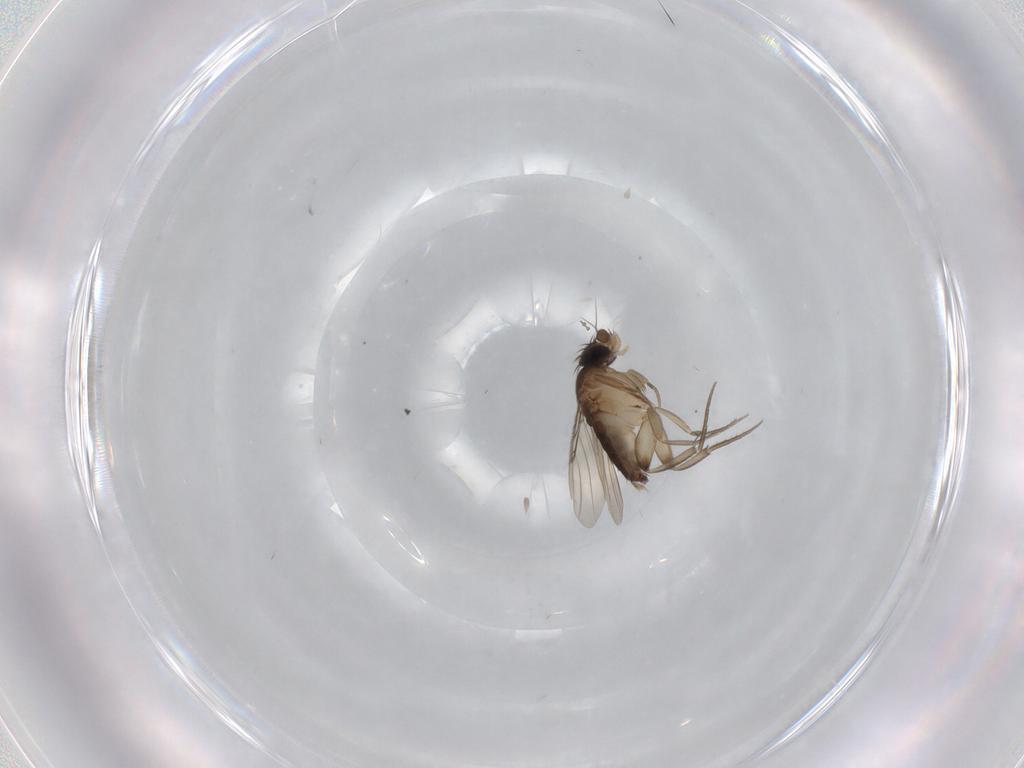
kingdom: Animalia
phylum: Arthropoda
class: Insecta
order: Diptera
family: Phoridae
